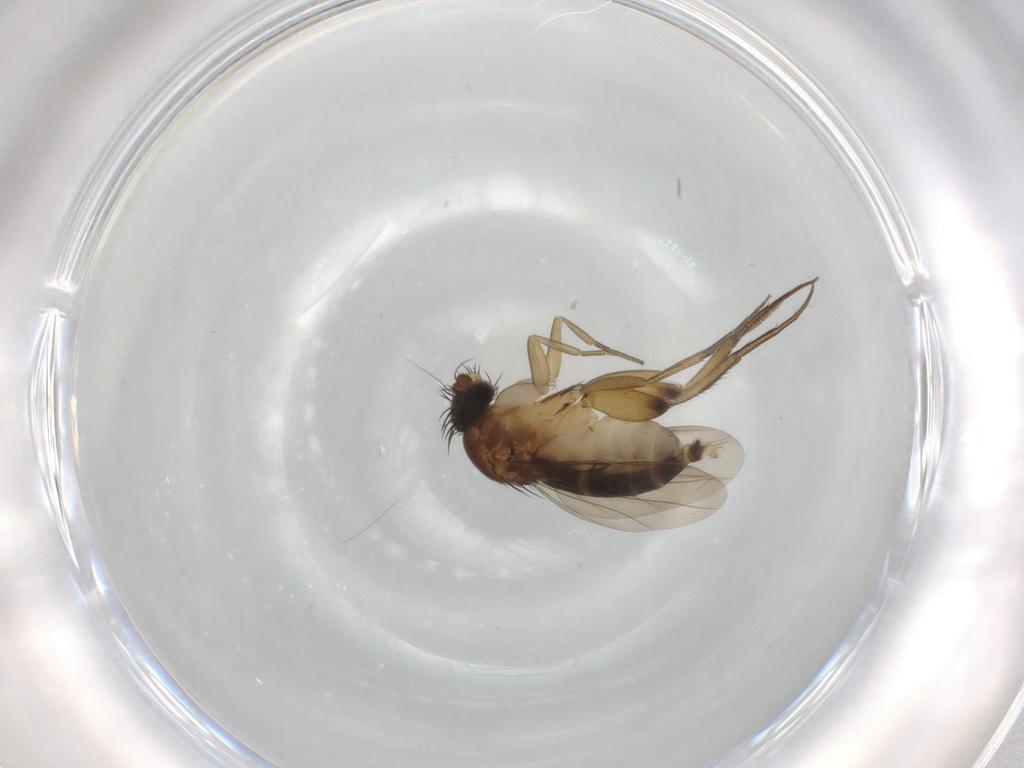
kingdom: Animalia
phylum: Arthropoda
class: Insecta
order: Diptera
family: Phoridae
